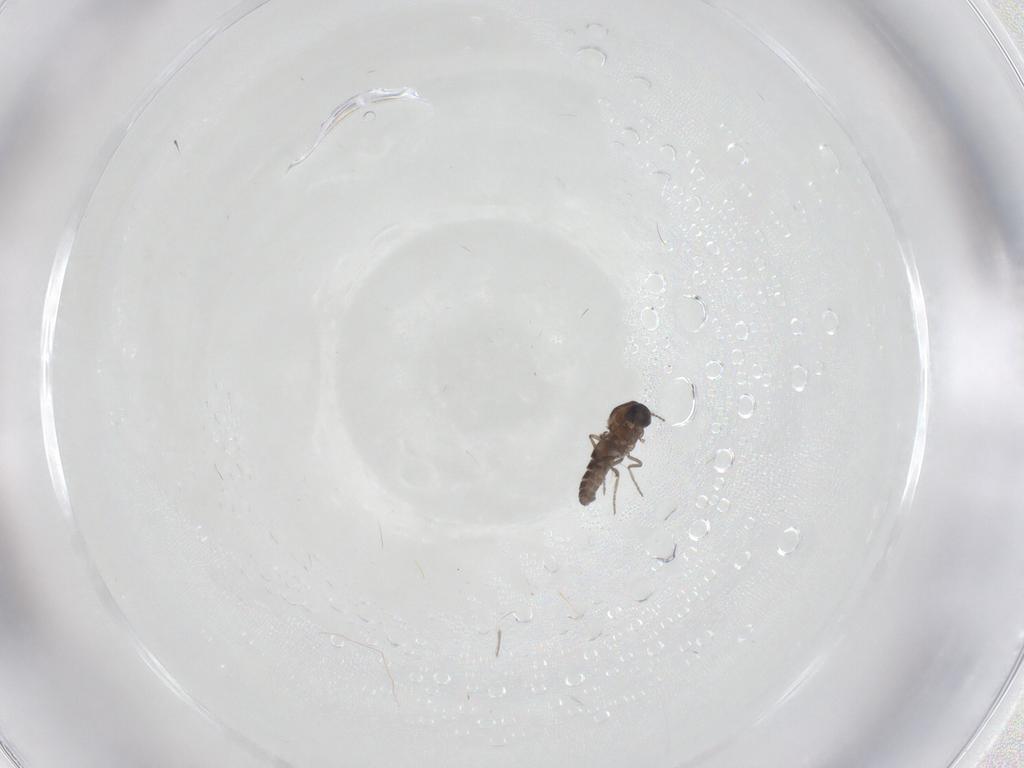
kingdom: Animalia
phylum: Arthropoda
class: Insecta
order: Diptera
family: Ceratopogonidae
